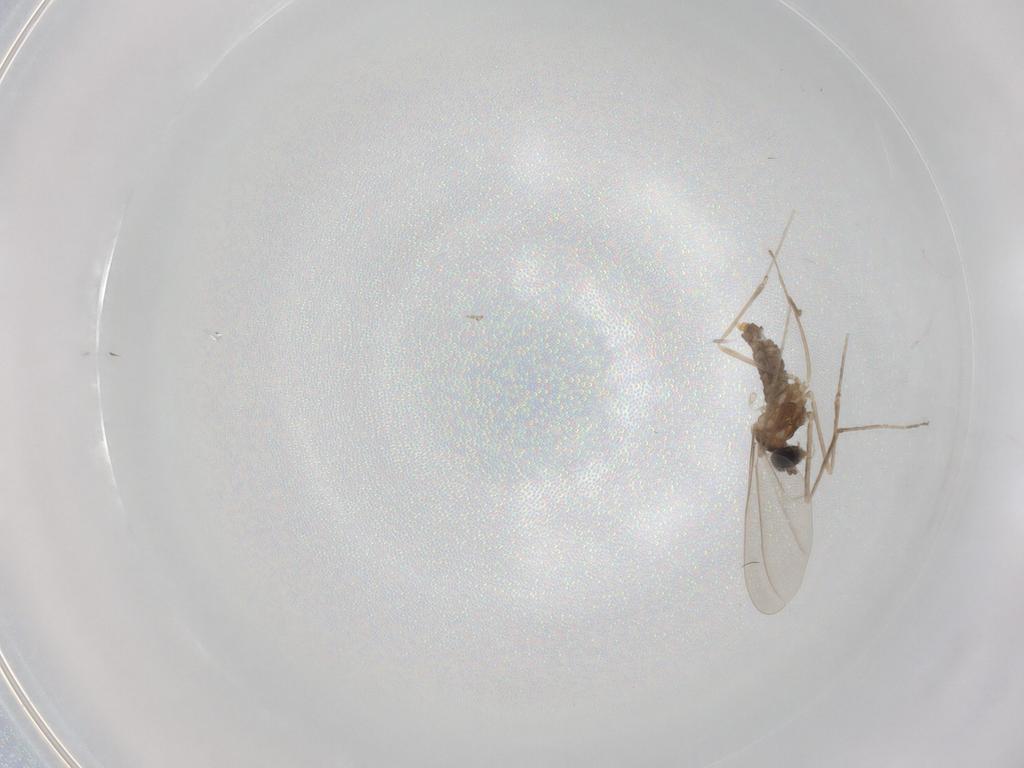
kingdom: Animalia
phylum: Arthropoda
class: Insecta
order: Diptera
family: Cecidomyiidae
